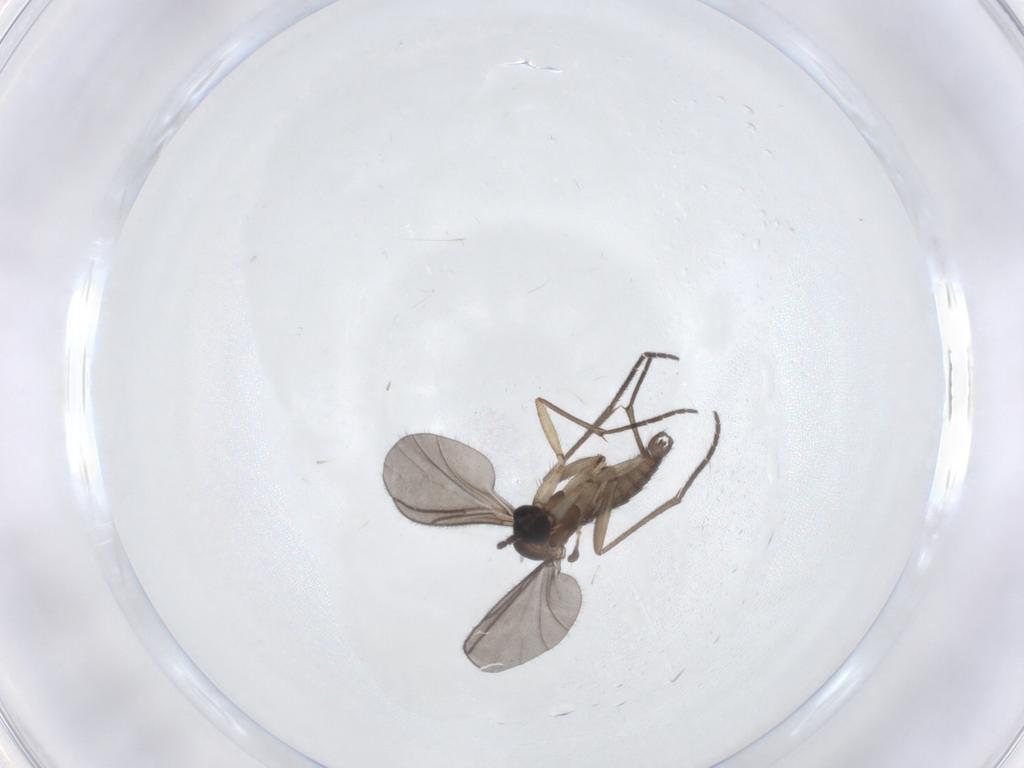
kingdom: Animalia
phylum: Arthropoda
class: Insecta
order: Diptera
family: Sciaridae
